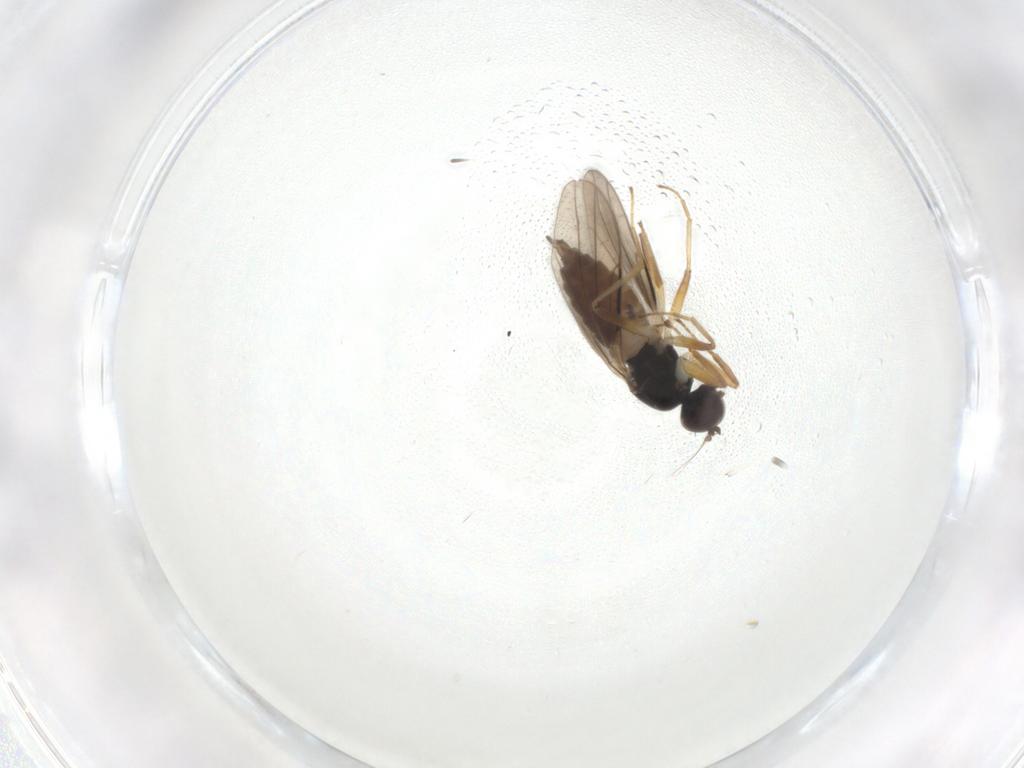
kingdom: Animalia
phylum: Arthropoda
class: Insecta
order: Diptera
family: Hybotidae
